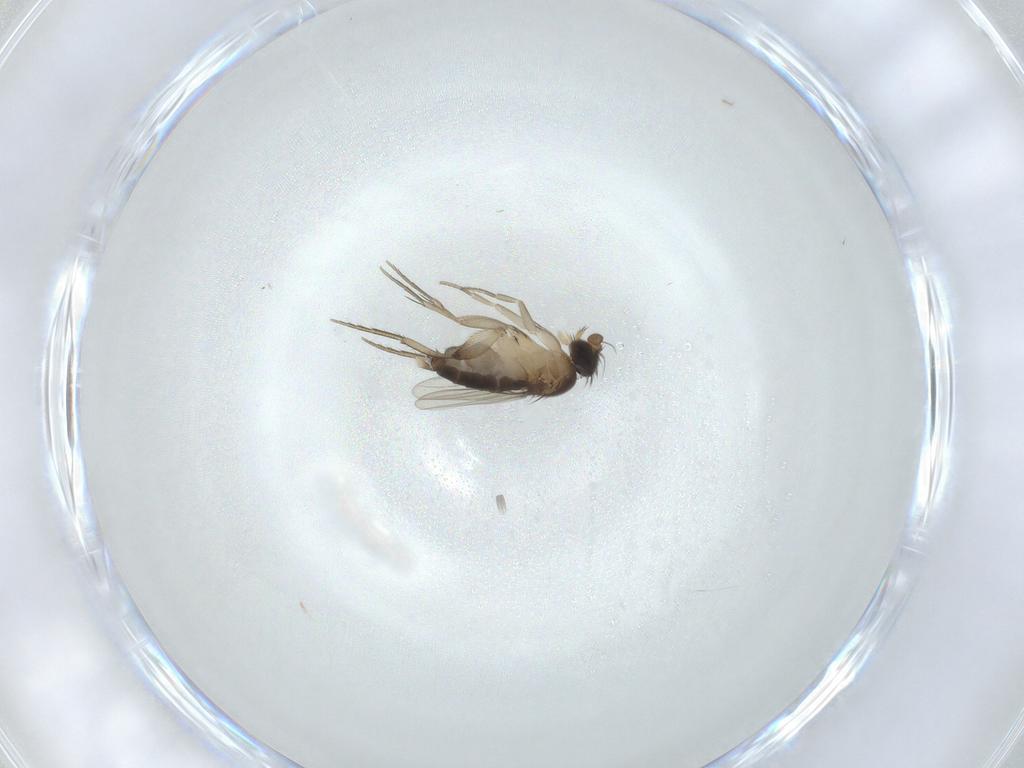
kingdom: Animalia
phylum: Arthropoda
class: Insecta
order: Diptera
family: Phoridae
